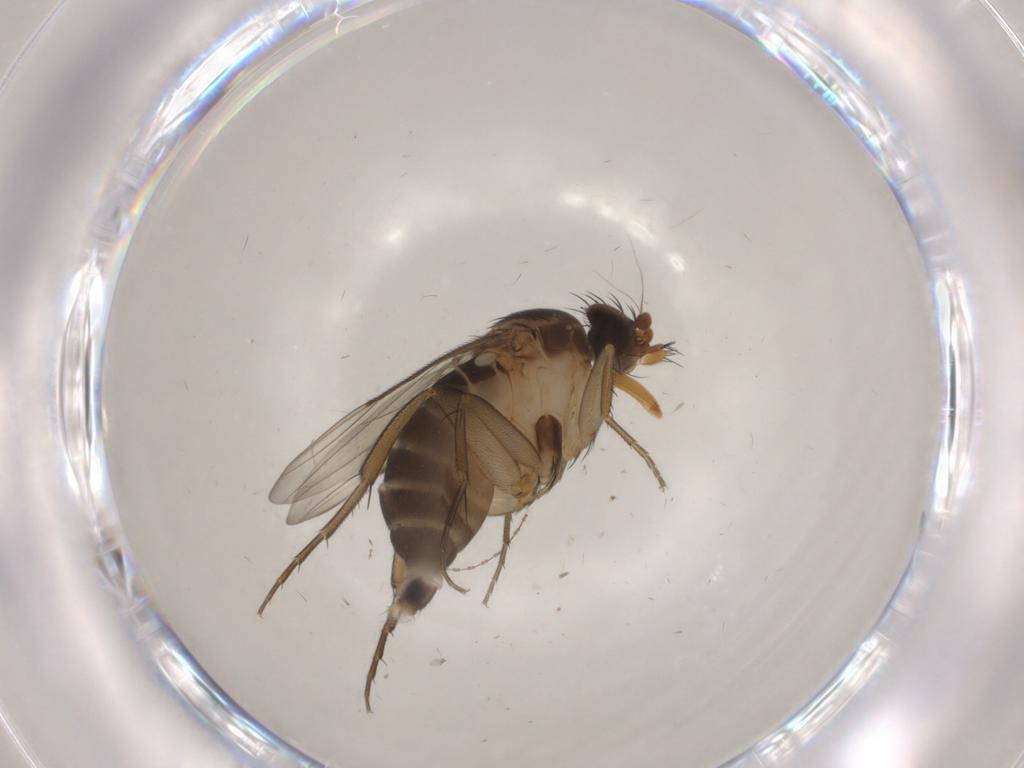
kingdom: Animalia
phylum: Arthropoda
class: Insecta
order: Diptera
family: Phoridae
